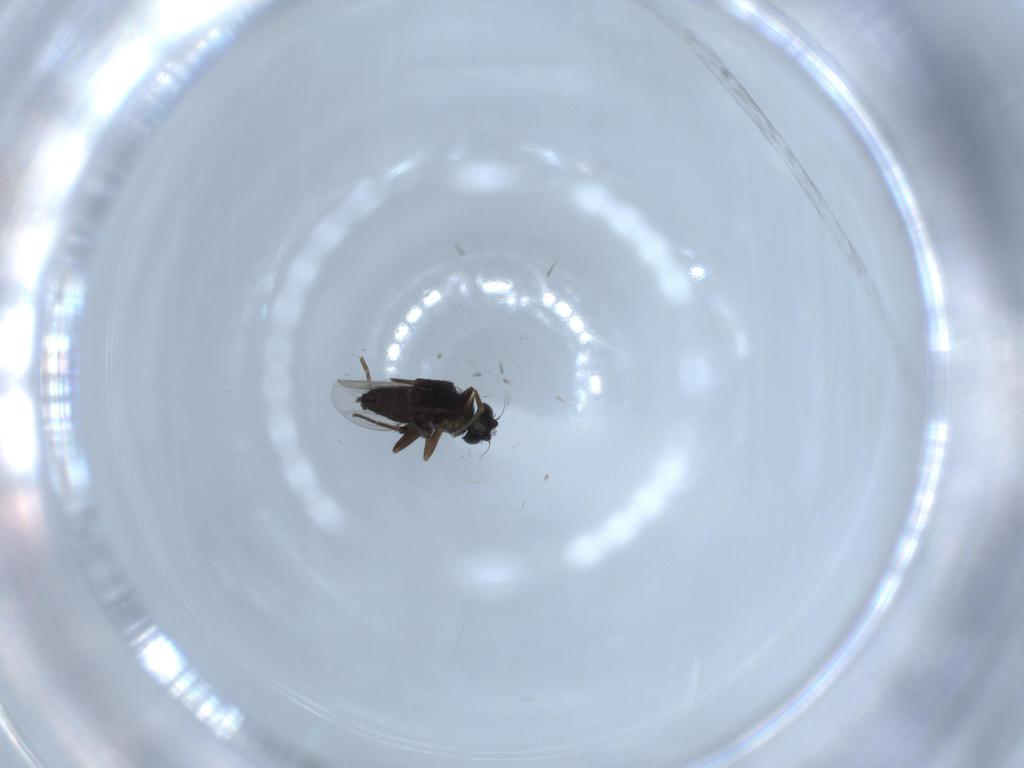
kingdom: Animalia
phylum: Arthropoda
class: Insecta
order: Diptera
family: Phoridae
